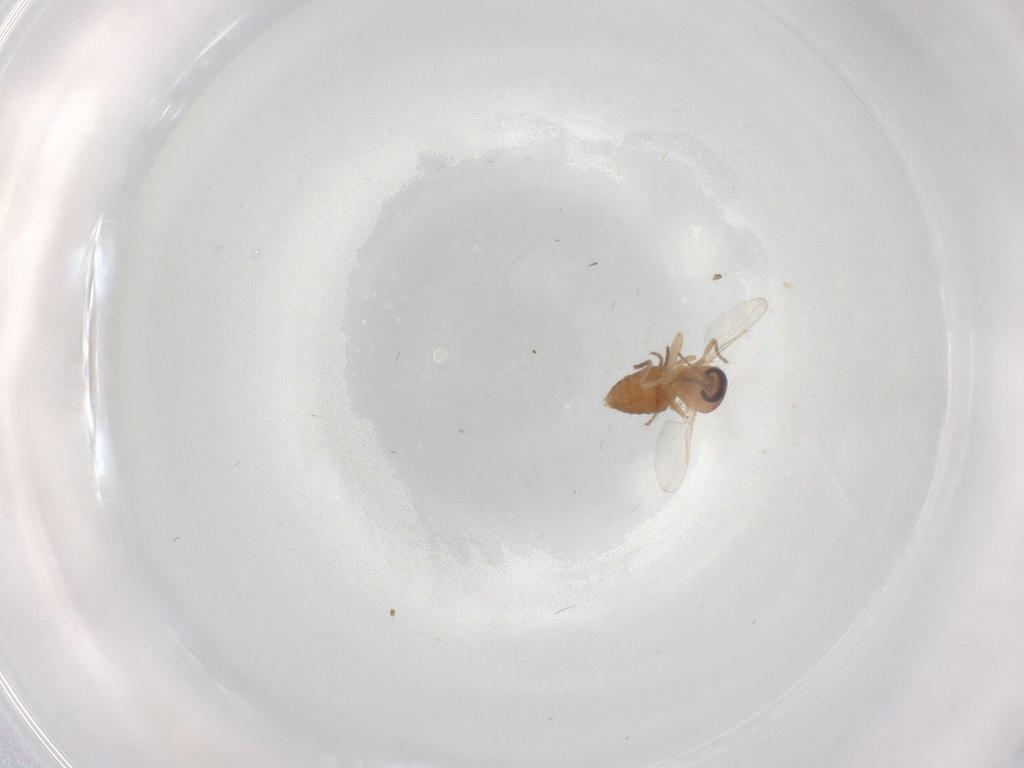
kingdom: Animalia
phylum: Arthropoda
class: Insecta
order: Diptera
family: Ceratopogonidae
